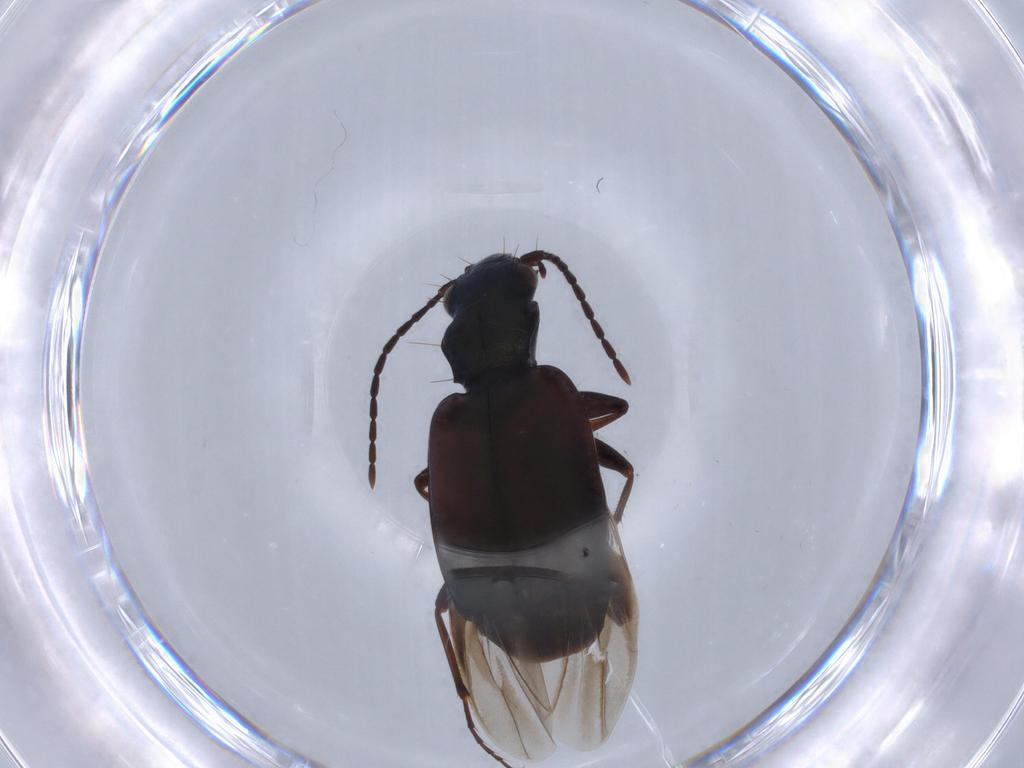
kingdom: Animalia
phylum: Arthropoda
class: Insecta
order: Coleoptera
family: Carabidae
